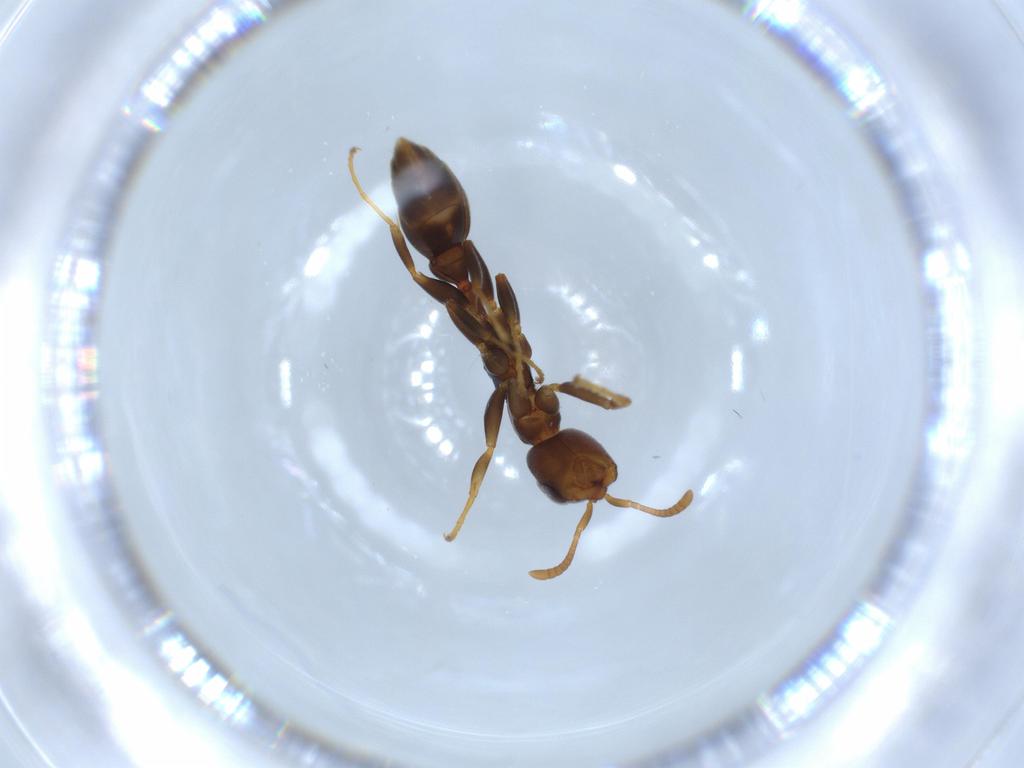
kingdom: Animalia
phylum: Arthropoda
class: Insecta
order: Hymenoptera
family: Formicidae
